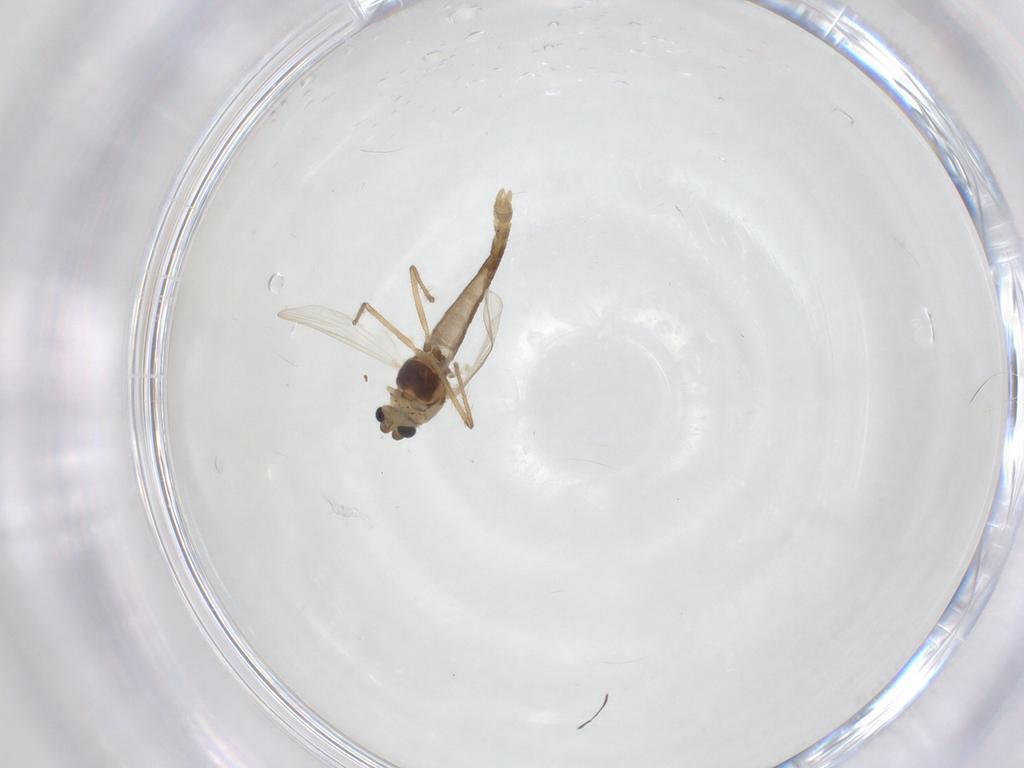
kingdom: Animalia
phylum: Arthropoda
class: Insecta
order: Diptera
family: Chironomidae
